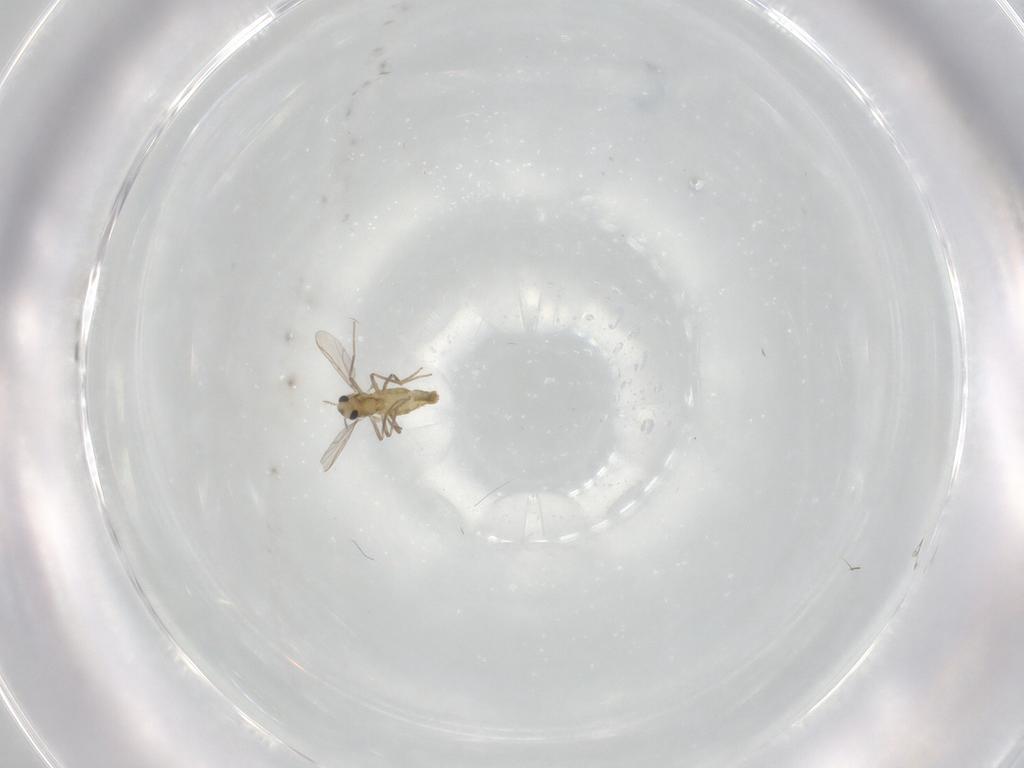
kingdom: Animalia
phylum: Arthropoda
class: Insecta
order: Diptera
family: Chironomidae
